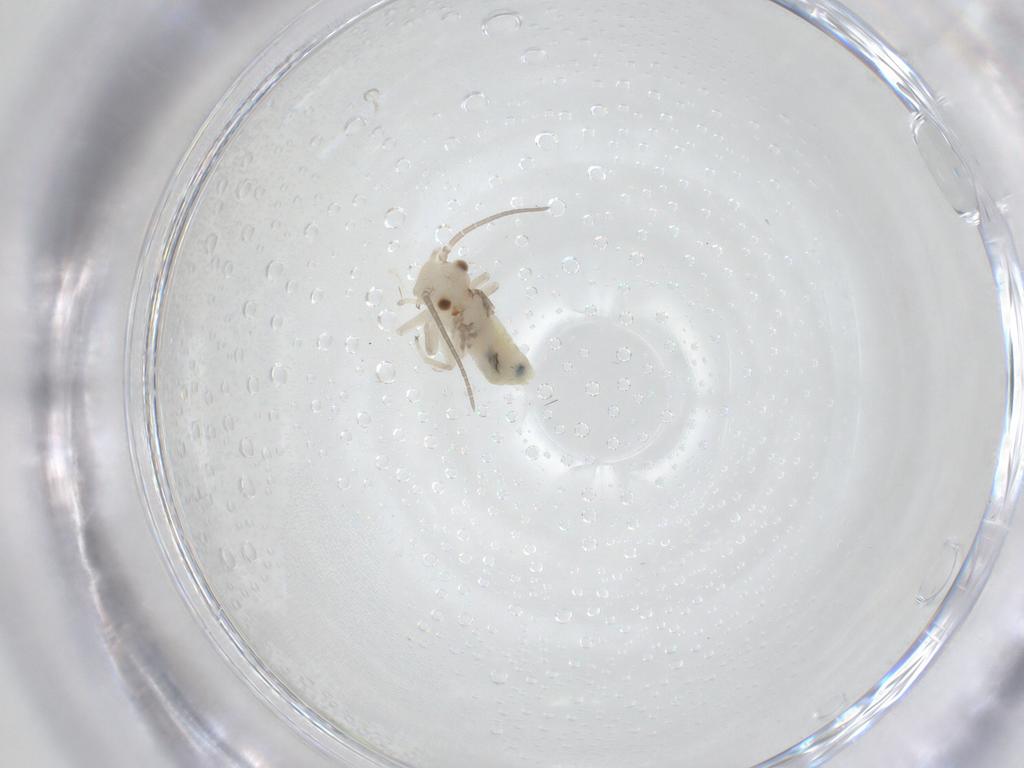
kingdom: Animalia
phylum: Arthropoda
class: Insecta
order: Psocodea
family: Caeciliusidae
